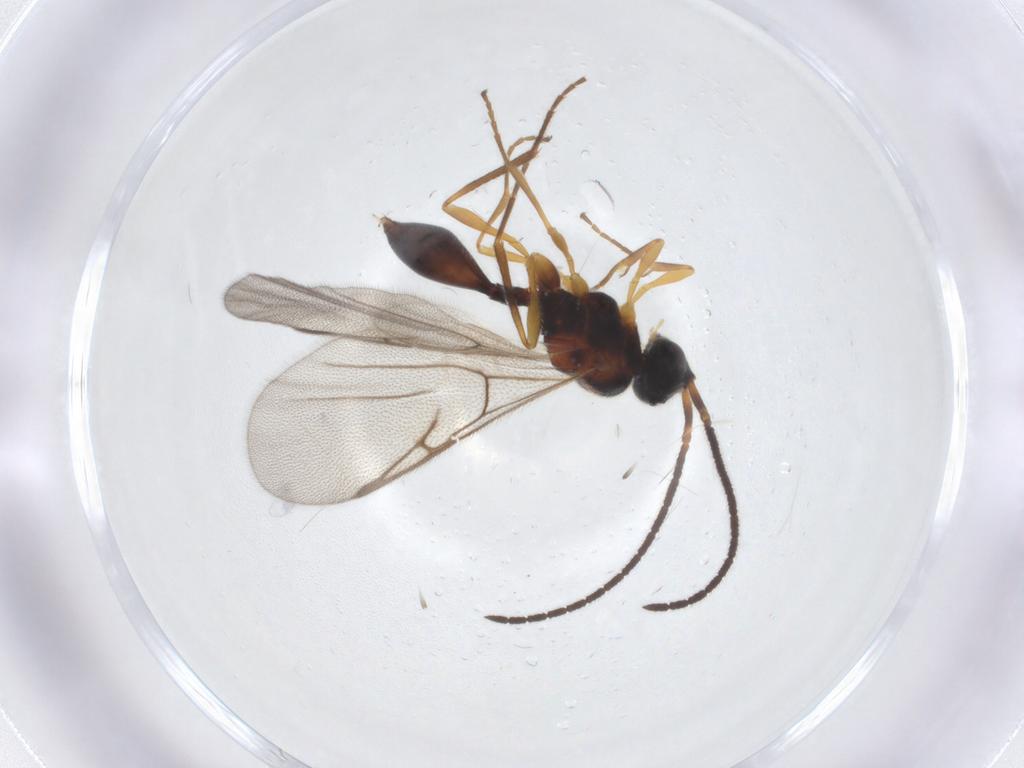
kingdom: Animalia
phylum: Arthropoda
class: Insecta
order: Hymenoptera
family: Diapriidae
